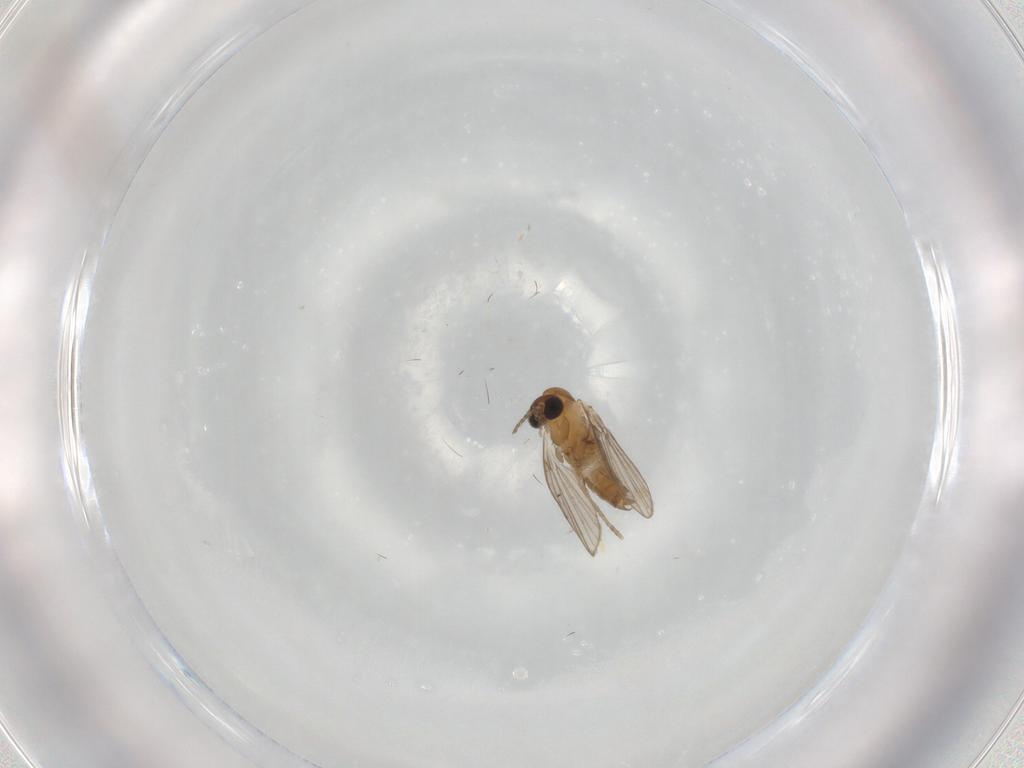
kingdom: Animalia
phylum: Arthropoda
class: Insecta
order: Diptera
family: Limoniidae
